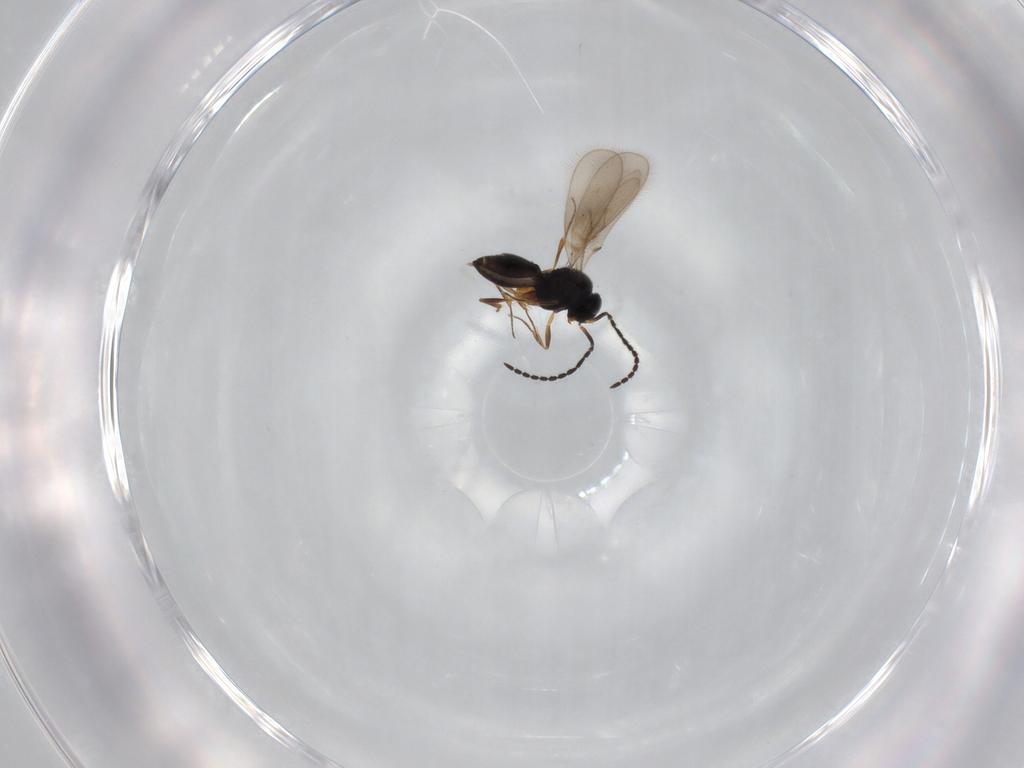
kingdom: Animalia
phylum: Arthropoda
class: Insecta
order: Hymenoptera
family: Scelionidae
